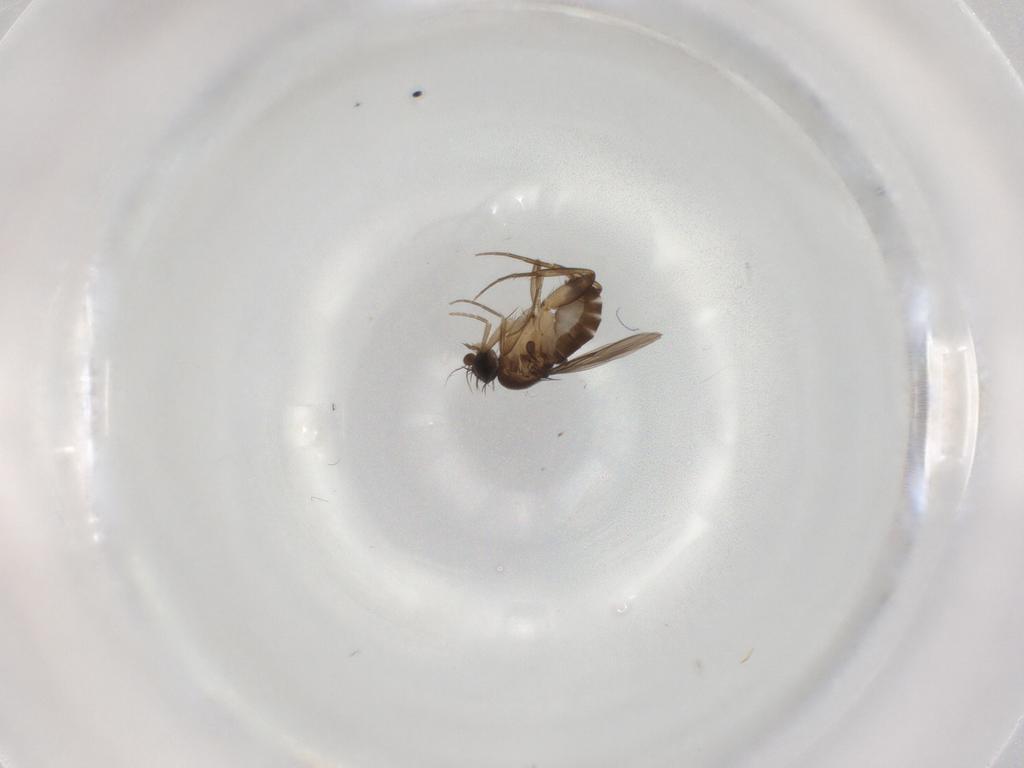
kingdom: Animalia
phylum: Arthropoda
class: Insecta
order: Diptera
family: Phoridae
